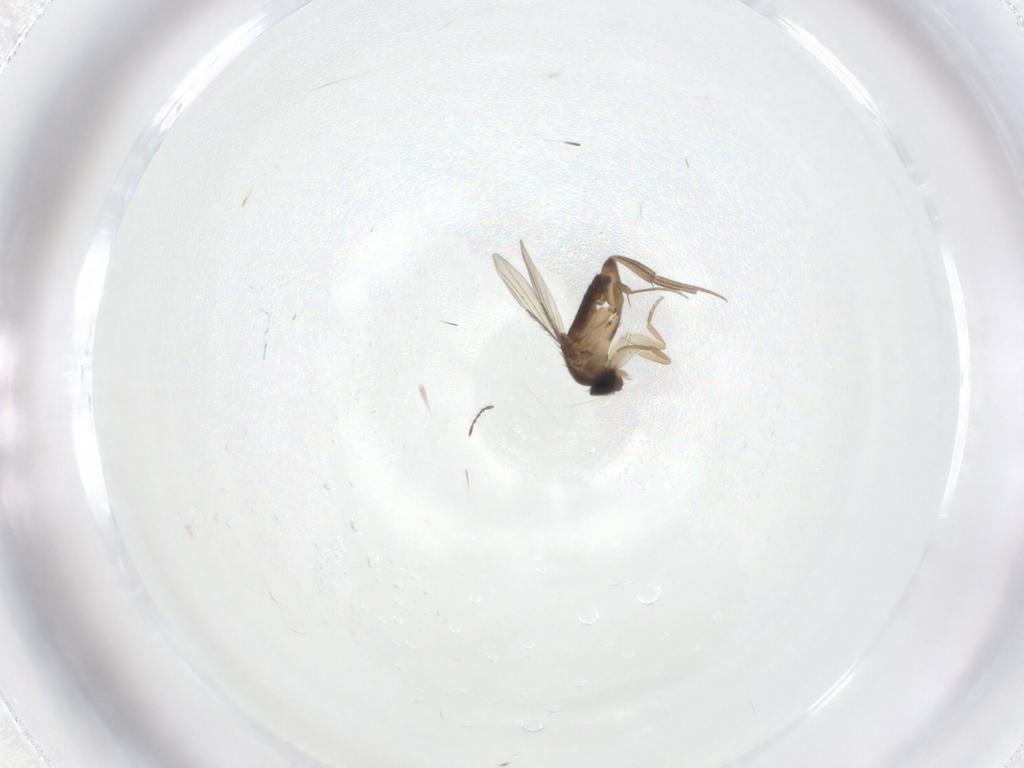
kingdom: Animalia
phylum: Arthropoda
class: Insecta
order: Diptera
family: Phoridae
